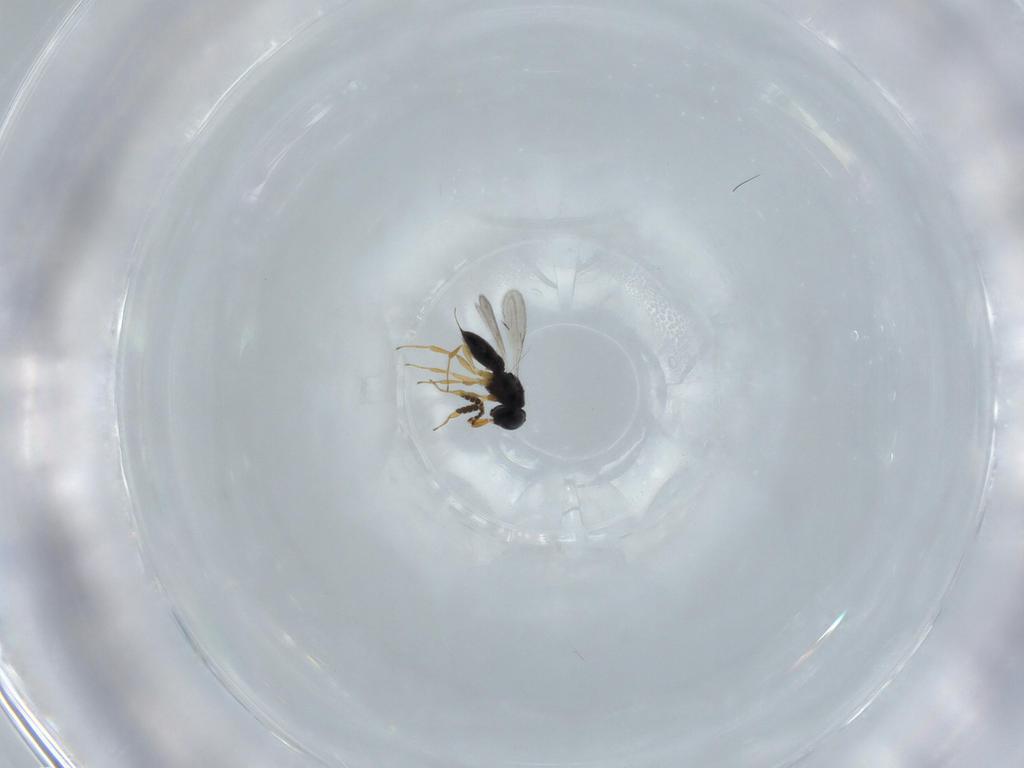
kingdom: Animalia
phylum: Arthropoda
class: Insecta
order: Hymenoptera
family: Scelionidae
